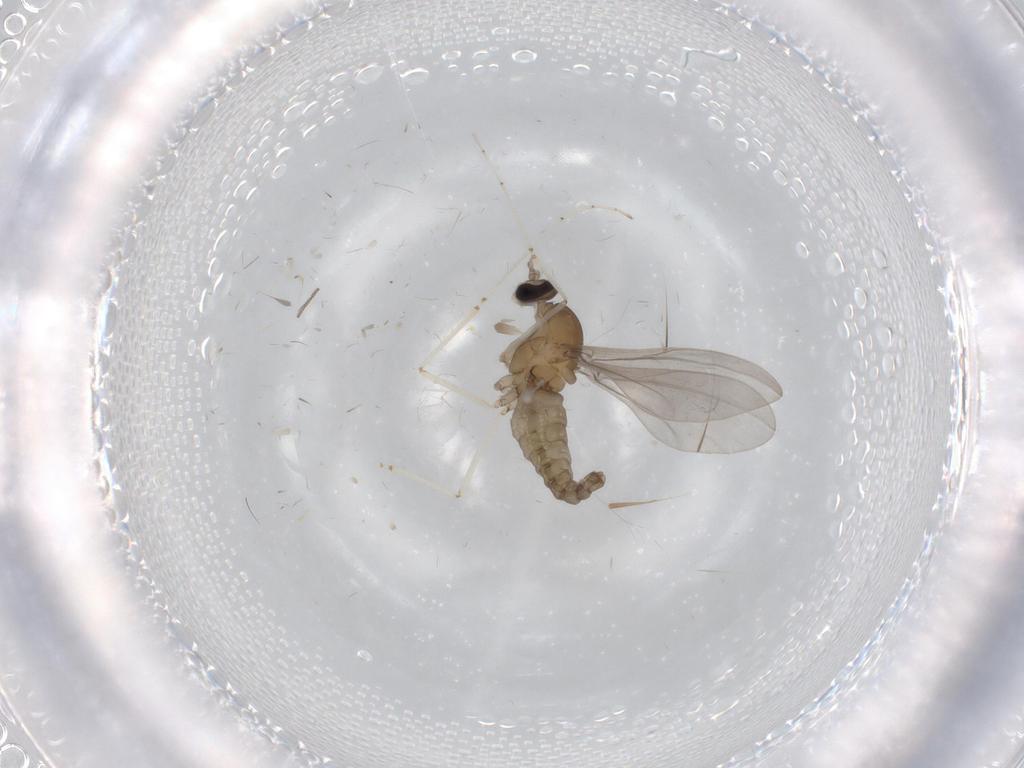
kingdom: Animalia
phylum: Arthropoda
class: Insecta
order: Diptera
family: Cecidomyiidae
